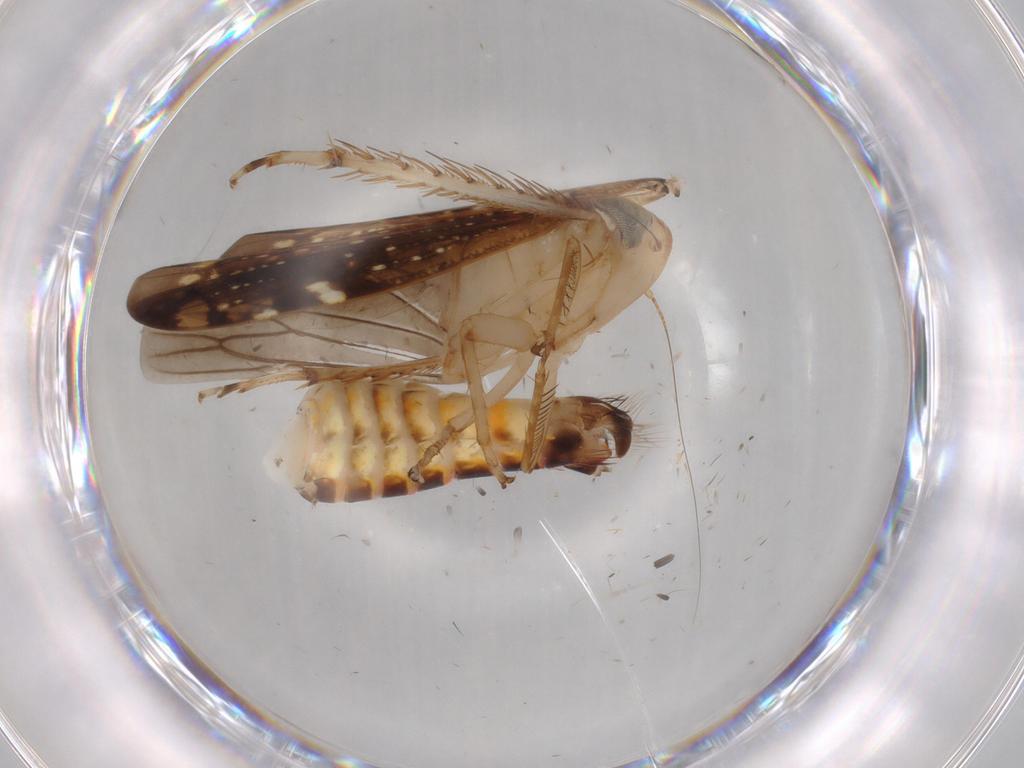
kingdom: Animalia
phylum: Arthropoda
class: Insecta
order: Hemiptera
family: Cicadellidae
